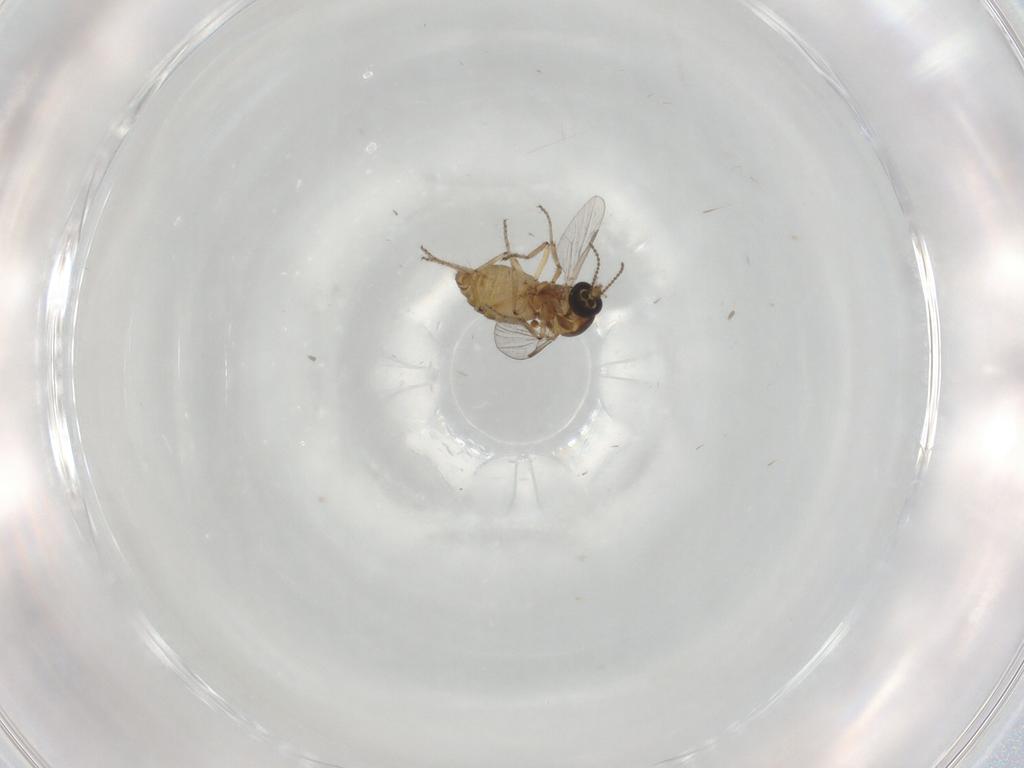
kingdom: Animalia
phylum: Arthropoda
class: Insecta
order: Diptera
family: Ceratopogonidae
